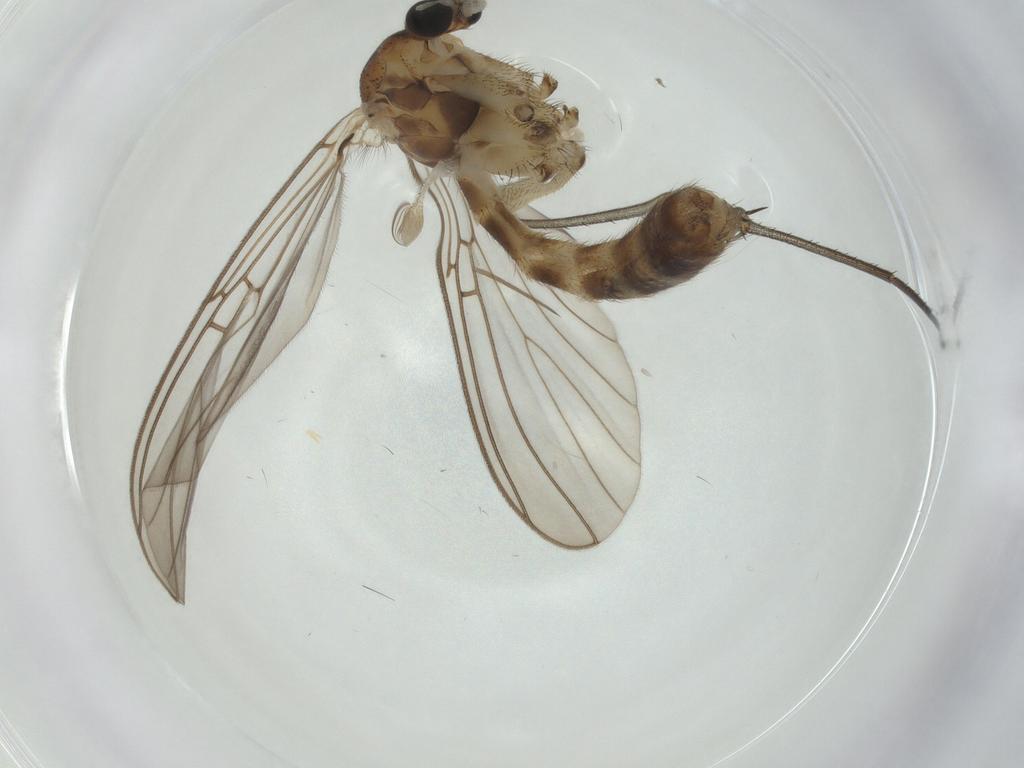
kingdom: Animalia
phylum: Arthropoda
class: Insecta
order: Diptera
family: Mycetophilidae
